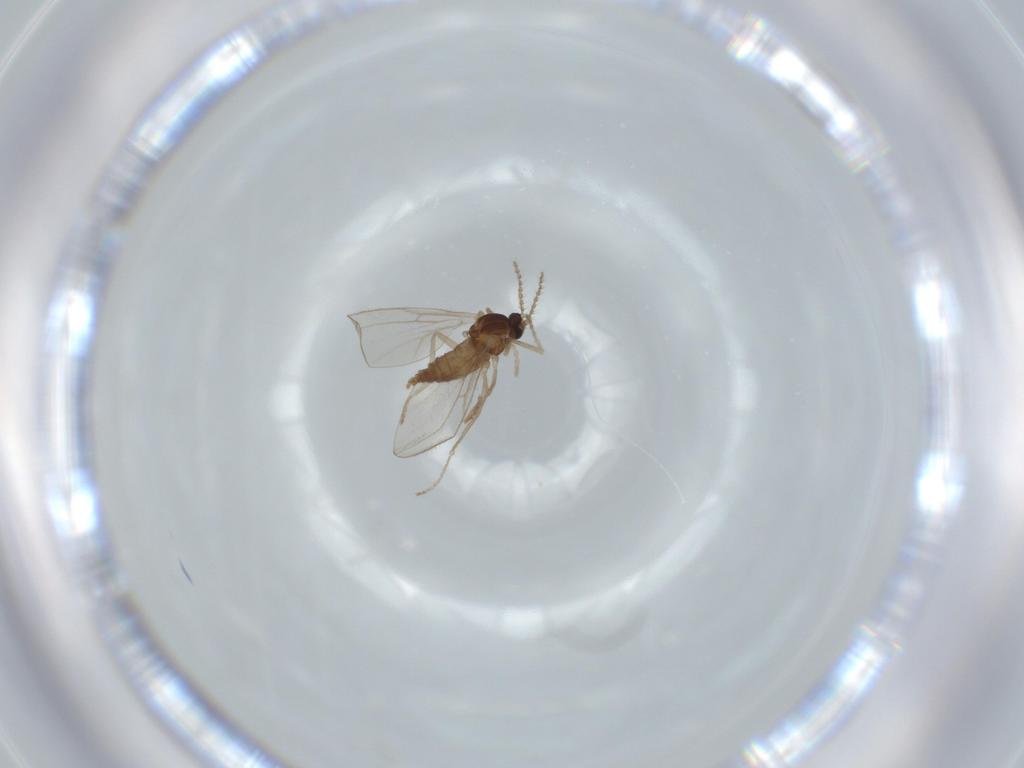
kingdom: Animalia
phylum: Arthropoda
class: Insecta
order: Diptera
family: Cecidomyiidae
